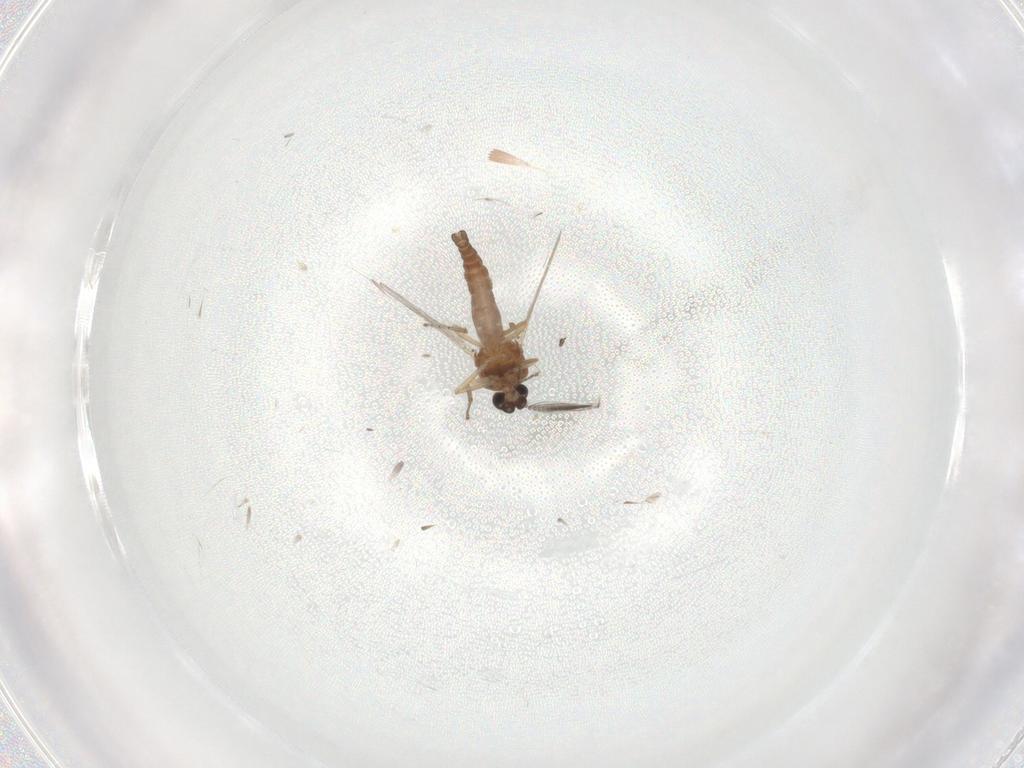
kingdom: Animalia
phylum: Arthropoda
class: Insecta
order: Diptera
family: Ceratopogonidae
